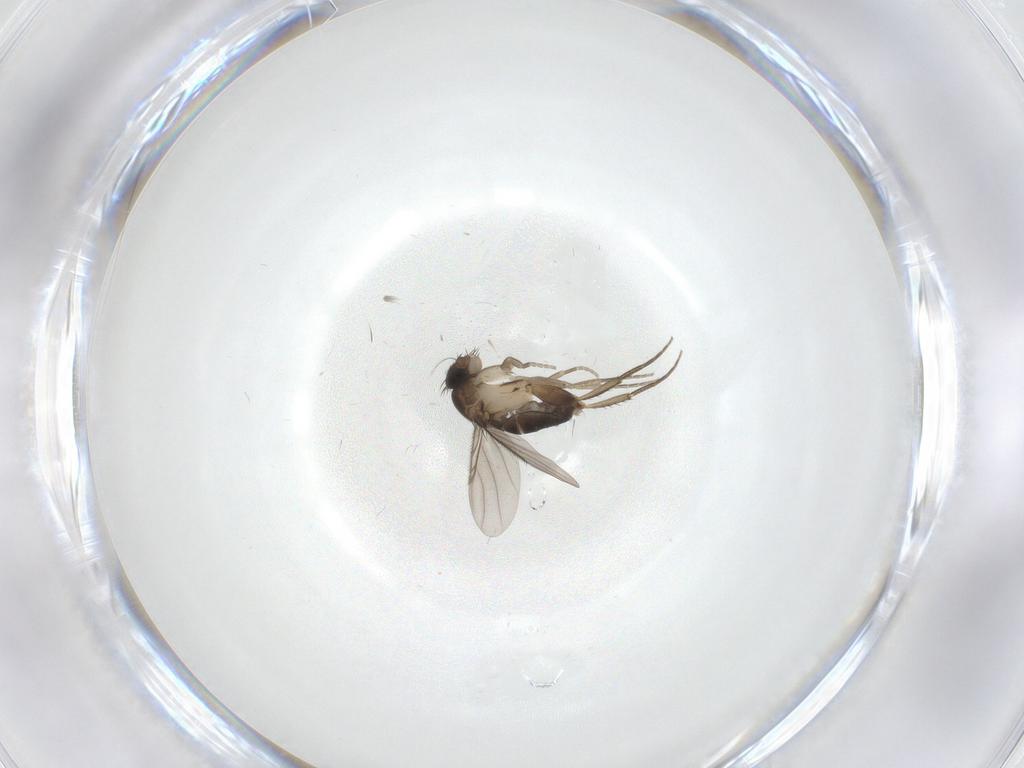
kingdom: Animalia
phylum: Arthropoda
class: Insecta
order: Diptera
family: Phoridae
